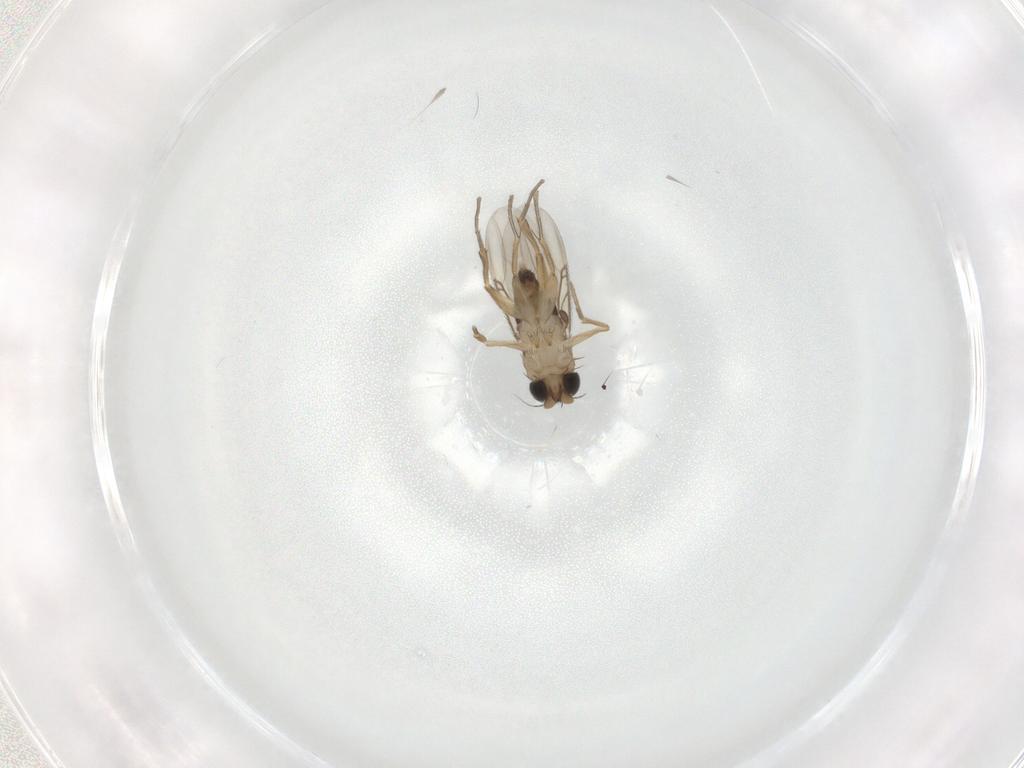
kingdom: Animalia
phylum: Arthropoda
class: Insecta
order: Diptera
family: Phoridae
